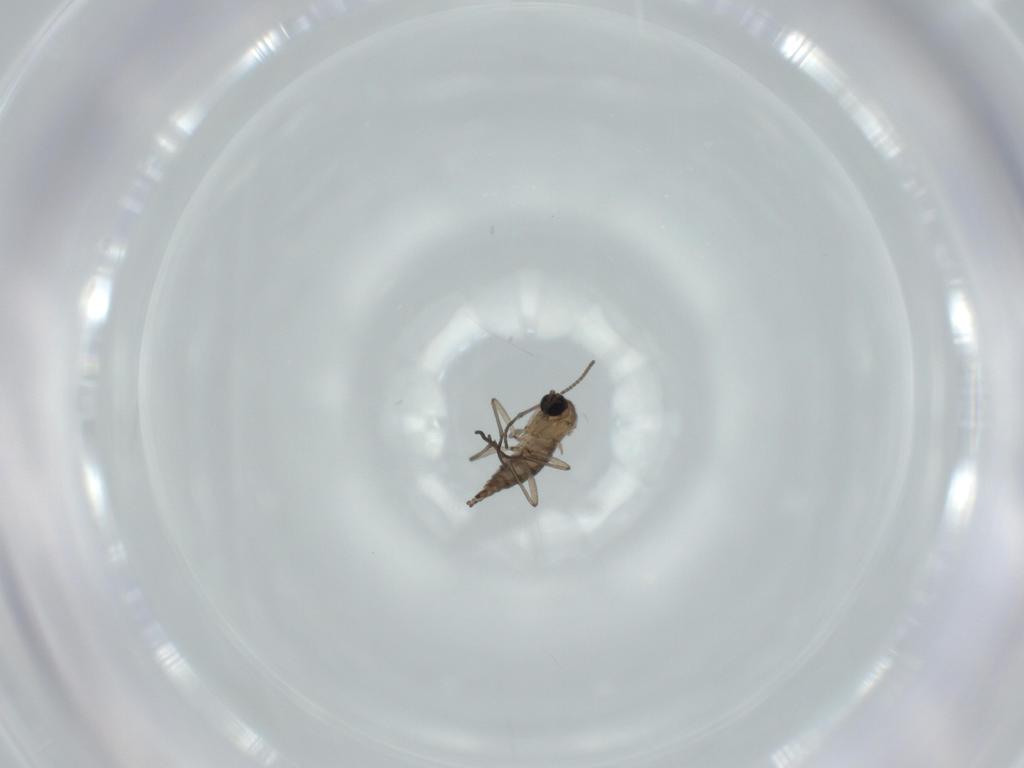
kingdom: Animalia
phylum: Arthropoda
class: Insecta
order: Diptera
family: Sciaridae
